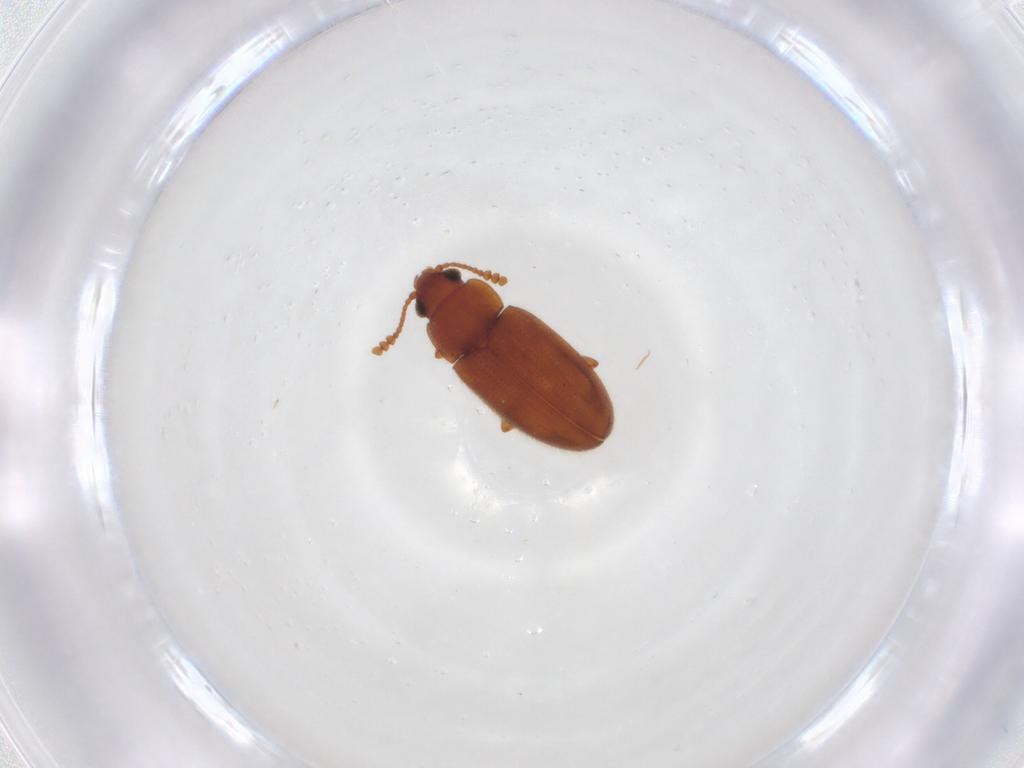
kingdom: Animalia
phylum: Arthropoda
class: Insecta
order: Coleoptera
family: Erotylidae
